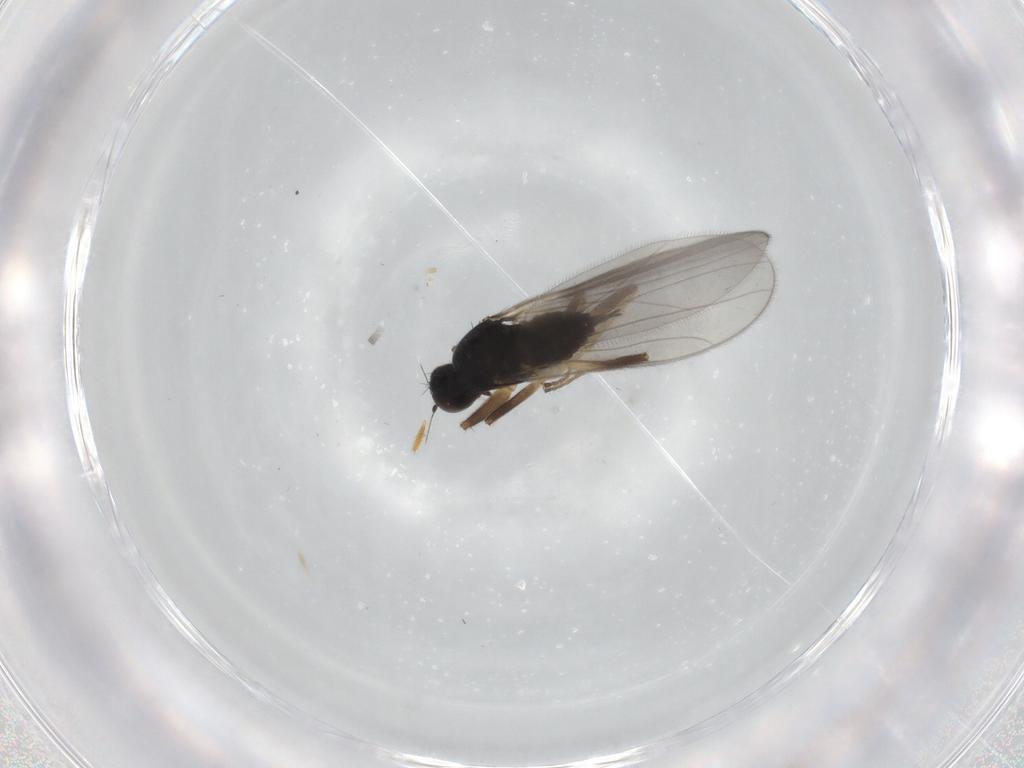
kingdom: Animalia
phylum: Arthropoda
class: Insecta
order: Diptera
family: Hybotidae
